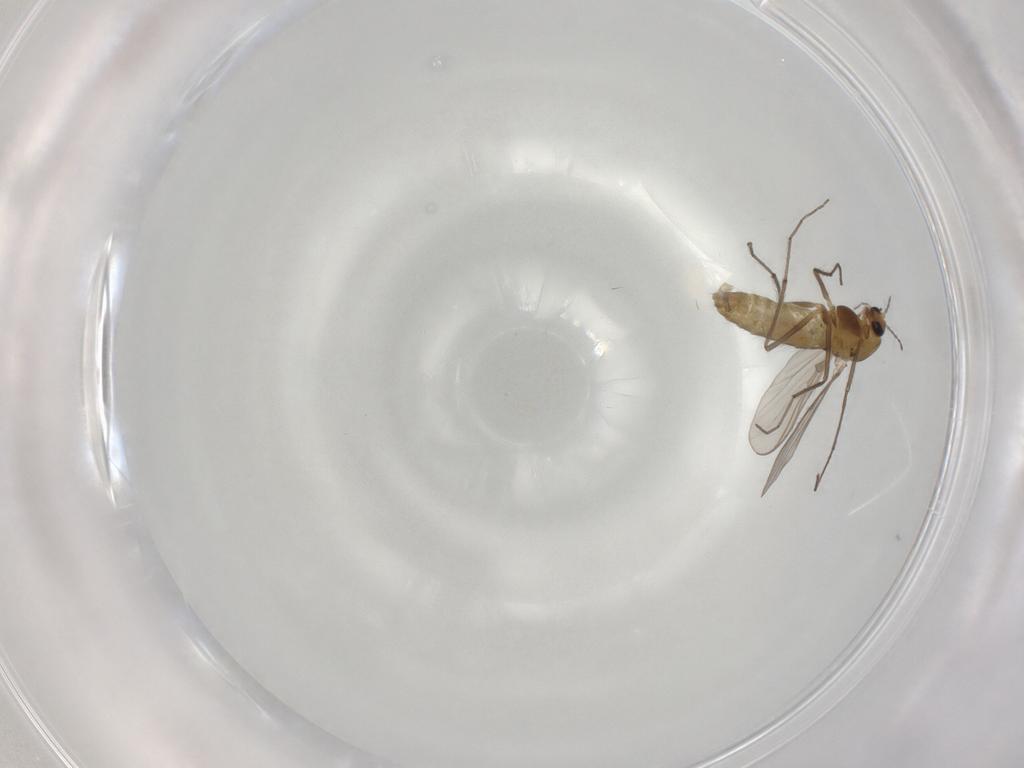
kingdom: Animalia
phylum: Arthropoda
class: Insecta
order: Diptera
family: Chironomidae
